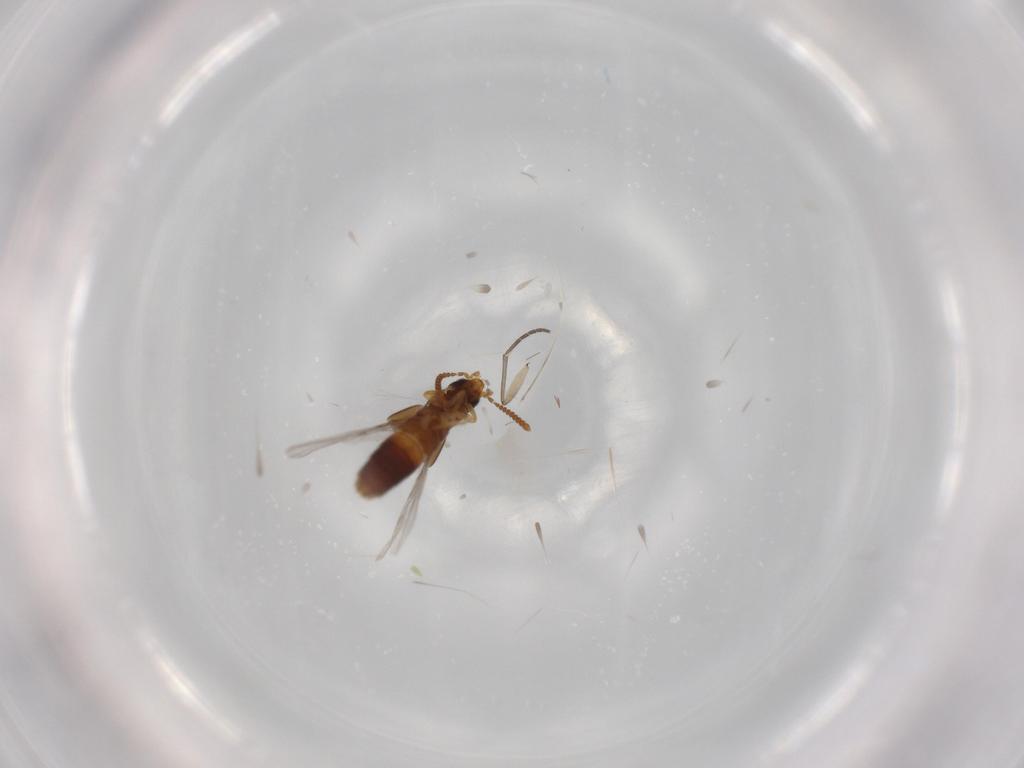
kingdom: Animalia
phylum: Arthropoda
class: Insecta
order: Coleoptera
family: Staphylinidae
